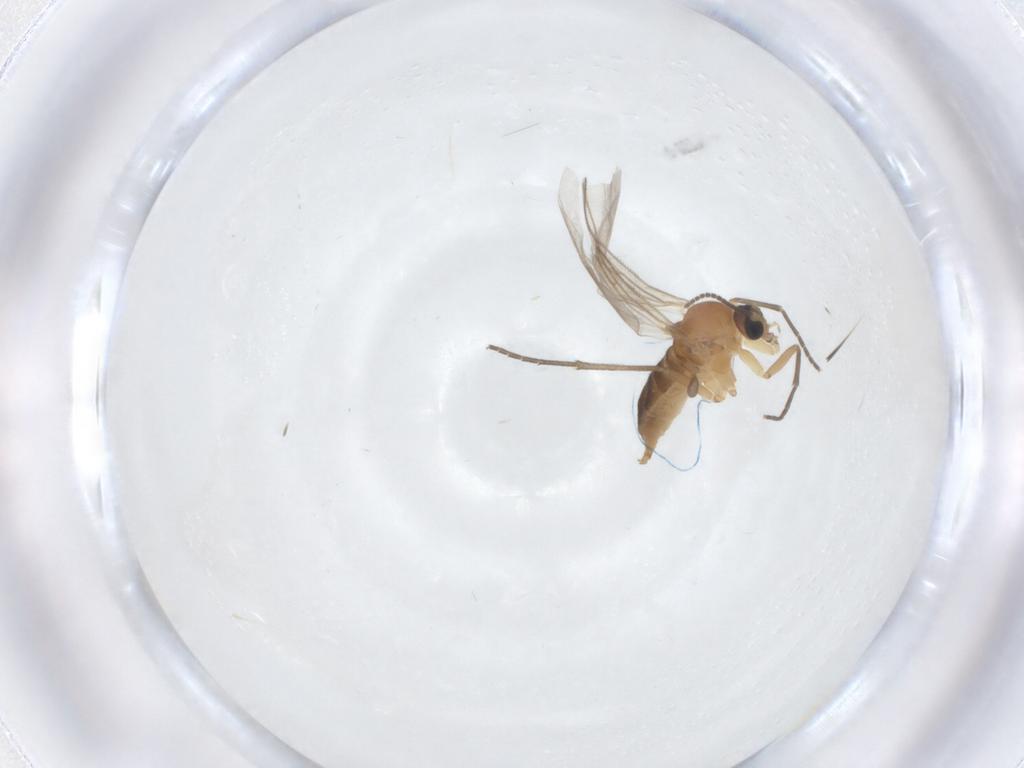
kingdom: Animalia
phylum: Arthropoda
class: Insecta
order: Diptera
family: Sciaridae
